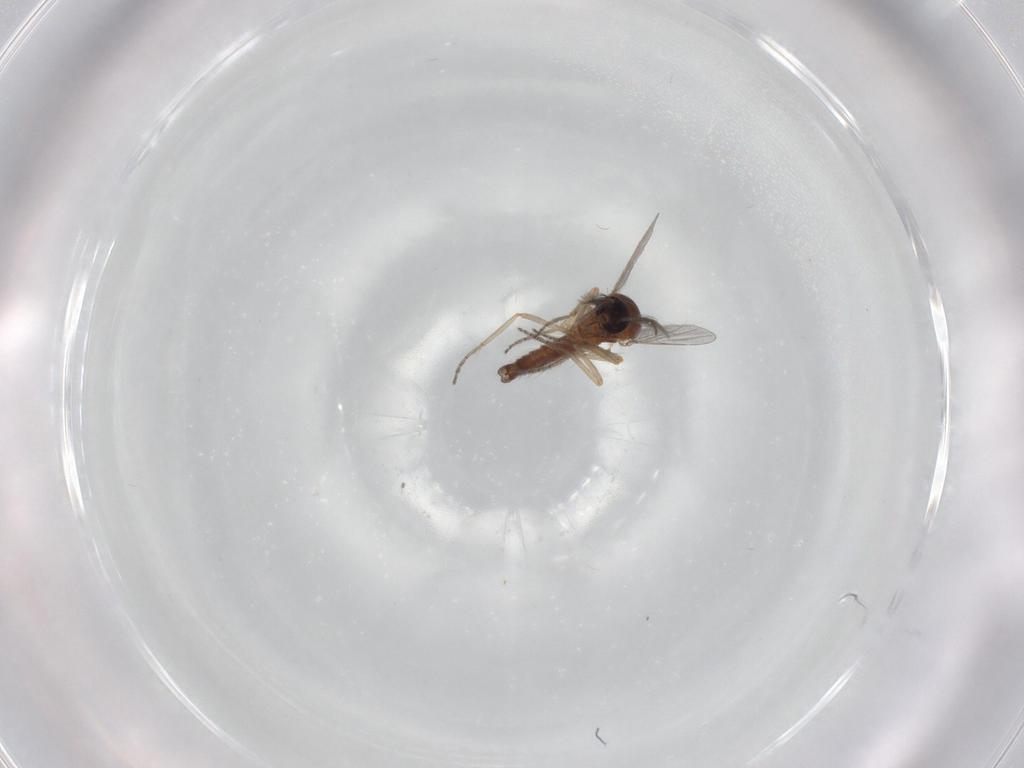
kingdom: Animalia
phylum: Arthropoda
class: Insecta
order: Diptera
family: Ceratopogonidae
